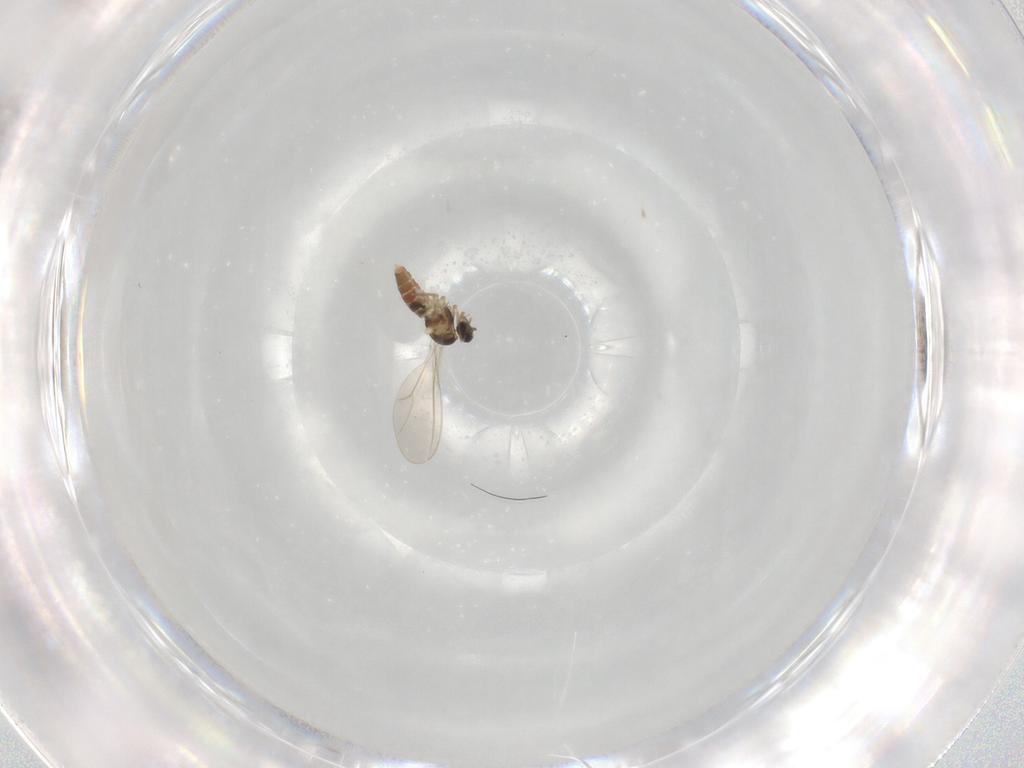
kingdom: Animalia
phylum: Arthropoda
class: Insecta
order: Diptera
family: Cecidomyiidae
